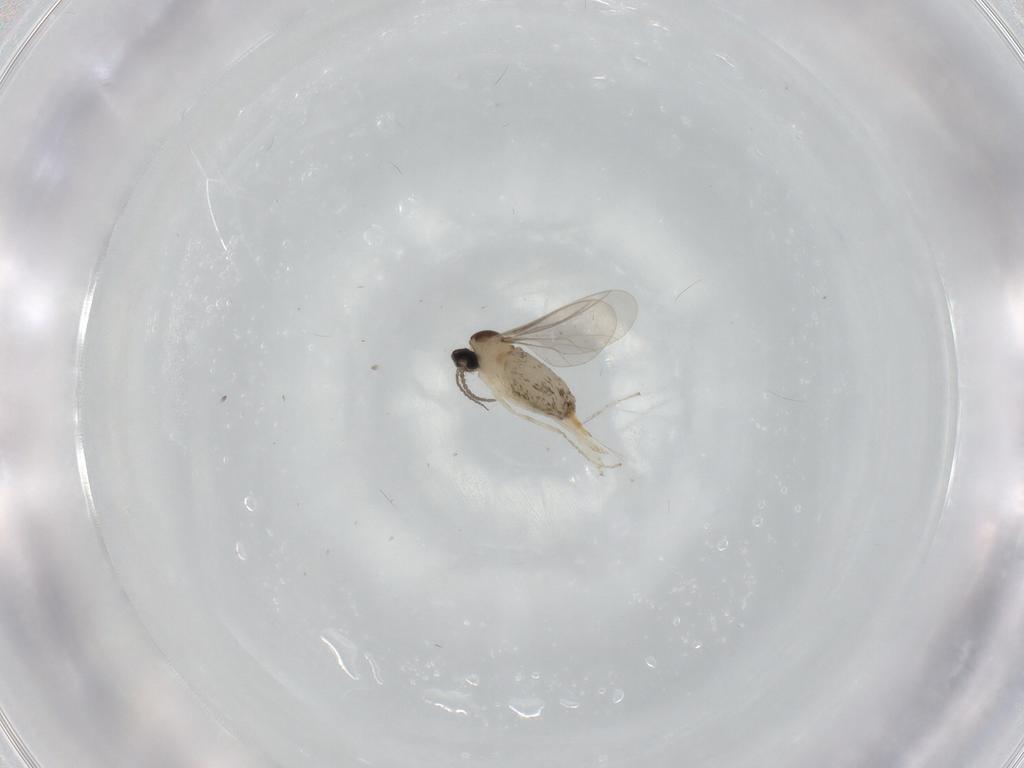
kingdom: Animalia
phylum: Arthropoda
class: Insecta
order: Diptera
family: Cecidomyiidae
